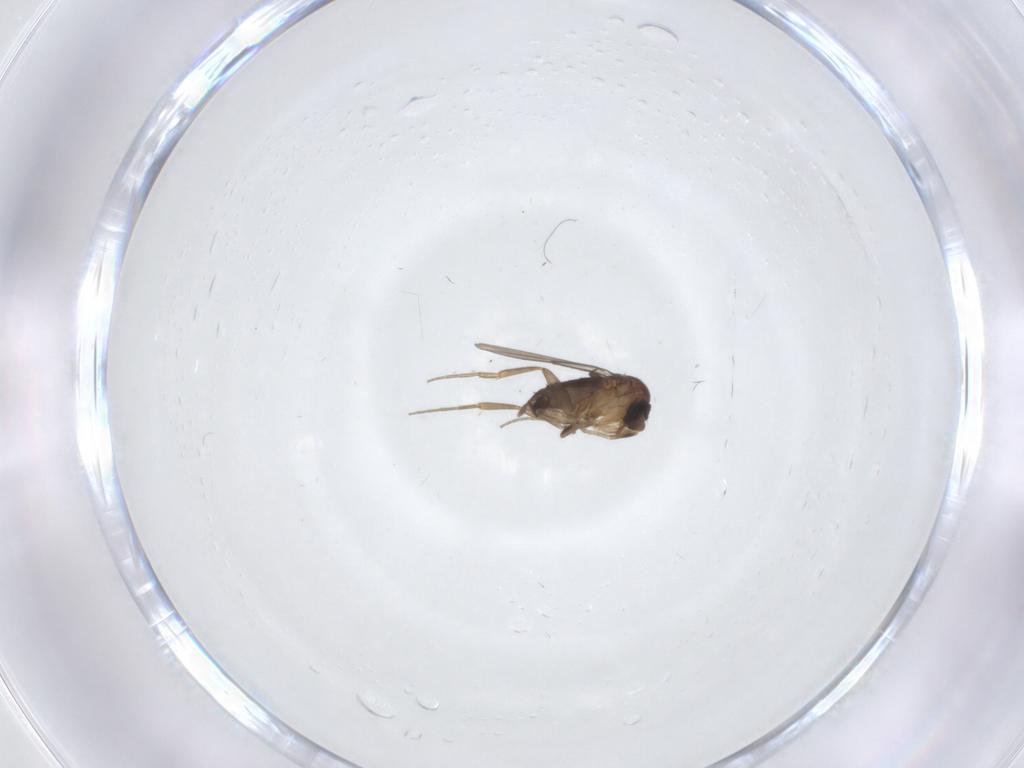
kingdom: Animalia
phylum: Arthropoda
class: Insecta
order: Diptera
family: Phoridae
